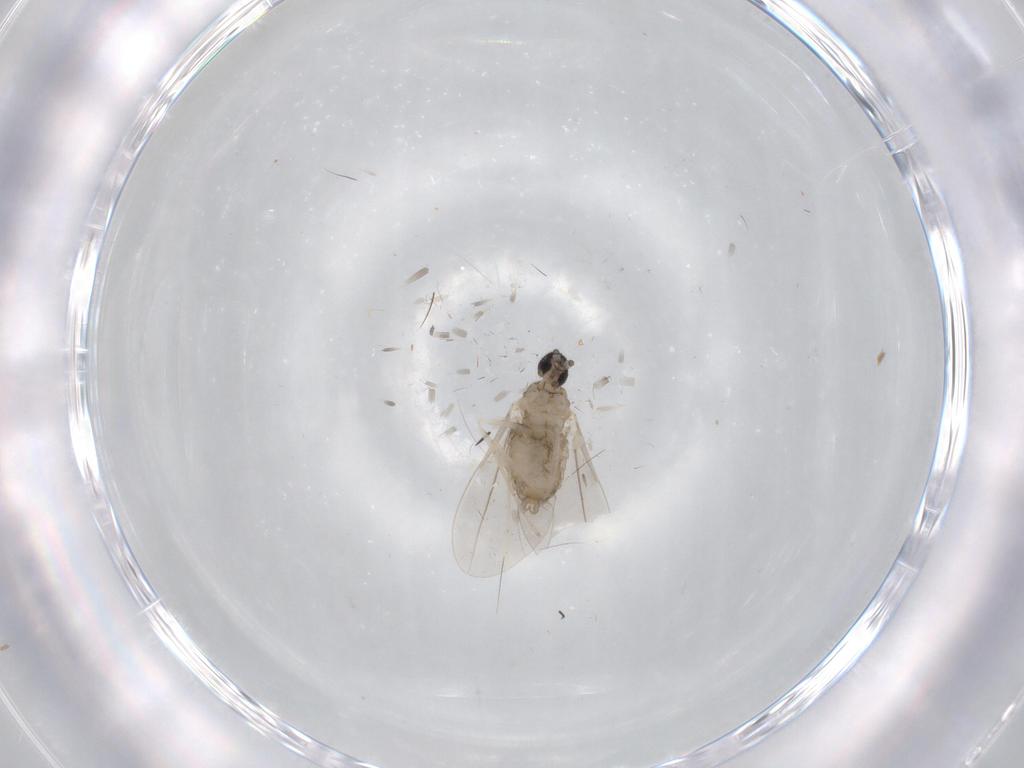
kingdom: Animalia
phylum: Arthropoda
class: Insecta
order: Diptera
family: Cecidomyiidae
